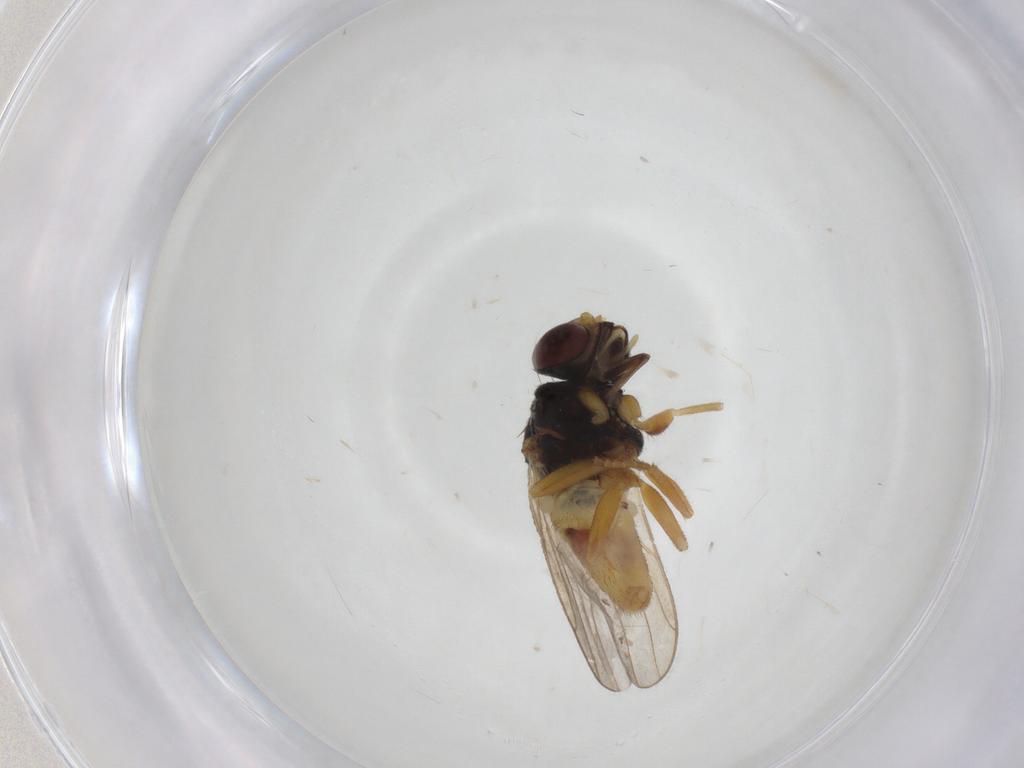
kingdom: Animalia
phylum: Arthropoda
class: Insecta
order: Diptera
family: Chloropidae
